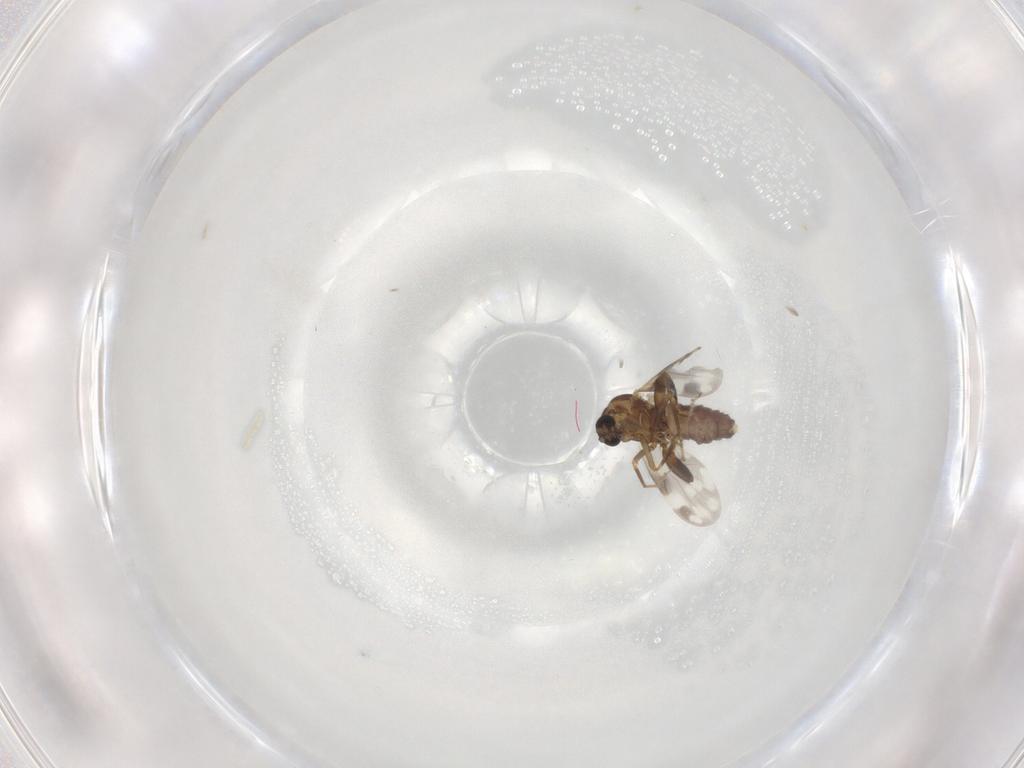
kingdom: Animalia
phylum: Arthropoda
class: Insecta
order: Diptera
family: Ceratopogonidae
